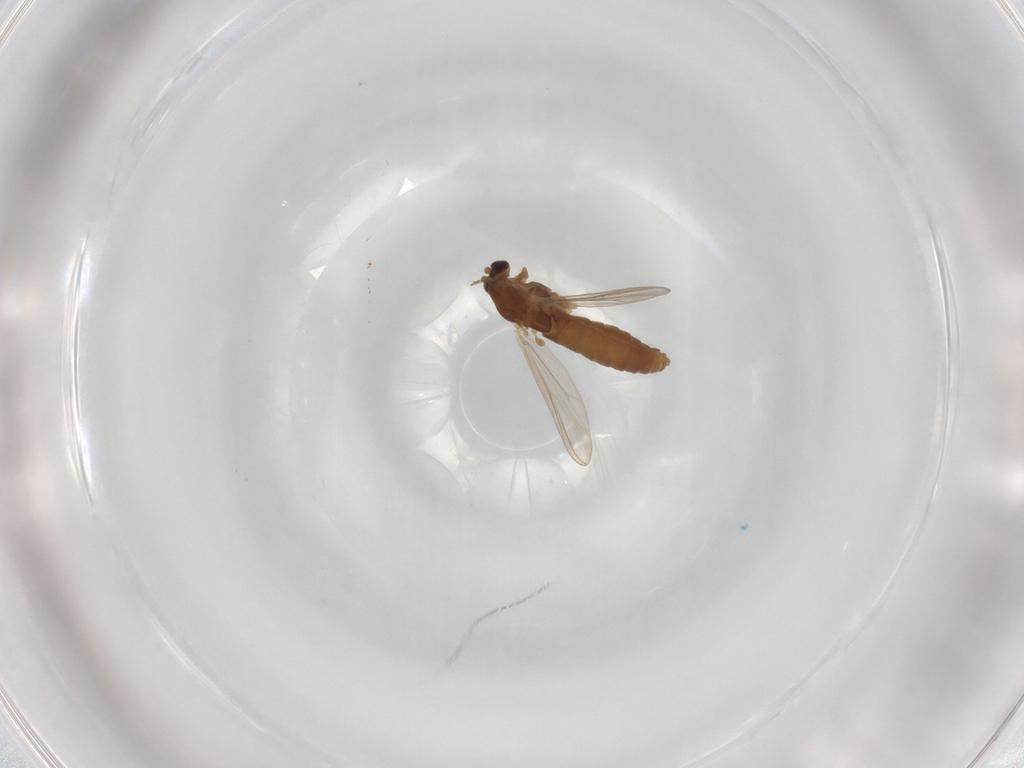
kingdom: Animalia
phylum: Arthropoda
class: Insecta
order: Diptera
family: Chironomidae
